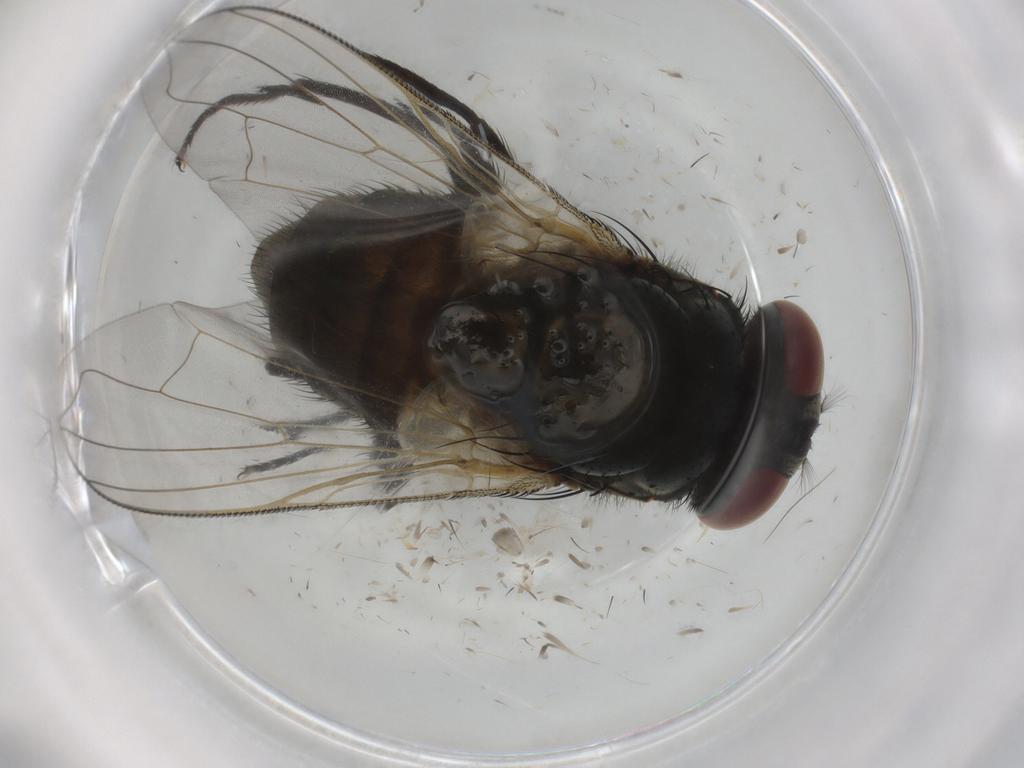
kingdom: Animalia
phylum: Arthropoda
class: Insecta
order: Diptera
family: Muscidae
